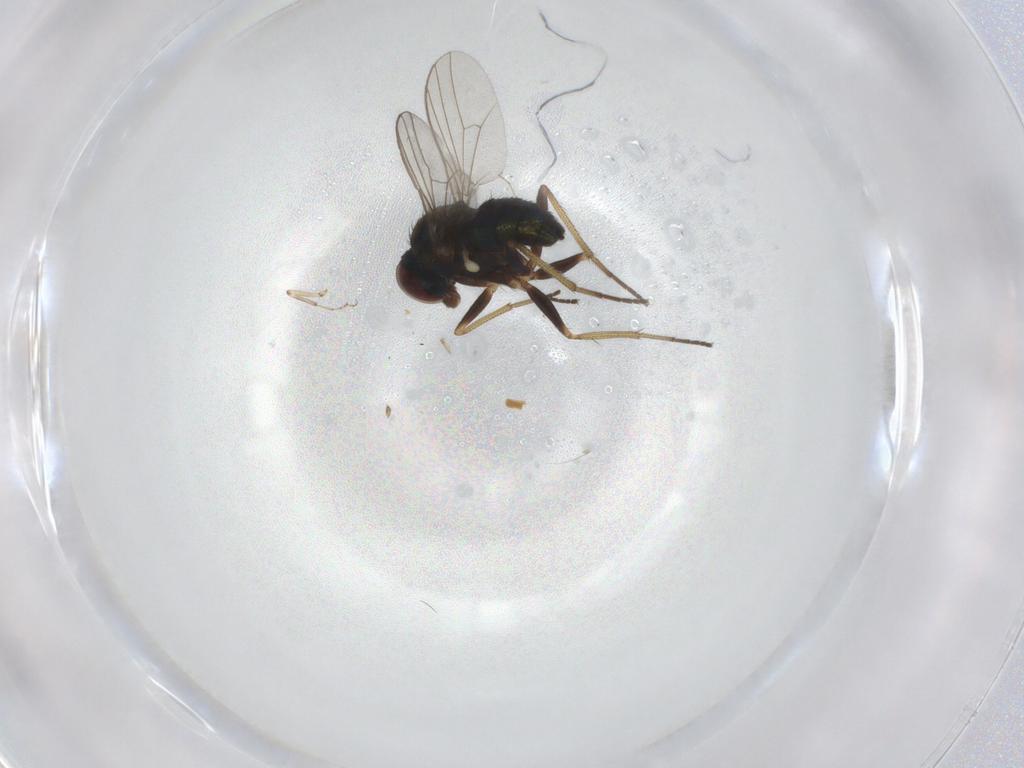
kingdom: Animalia
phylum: Arthropoda
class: Insecta
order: Diptera
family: Dolichopodidae
